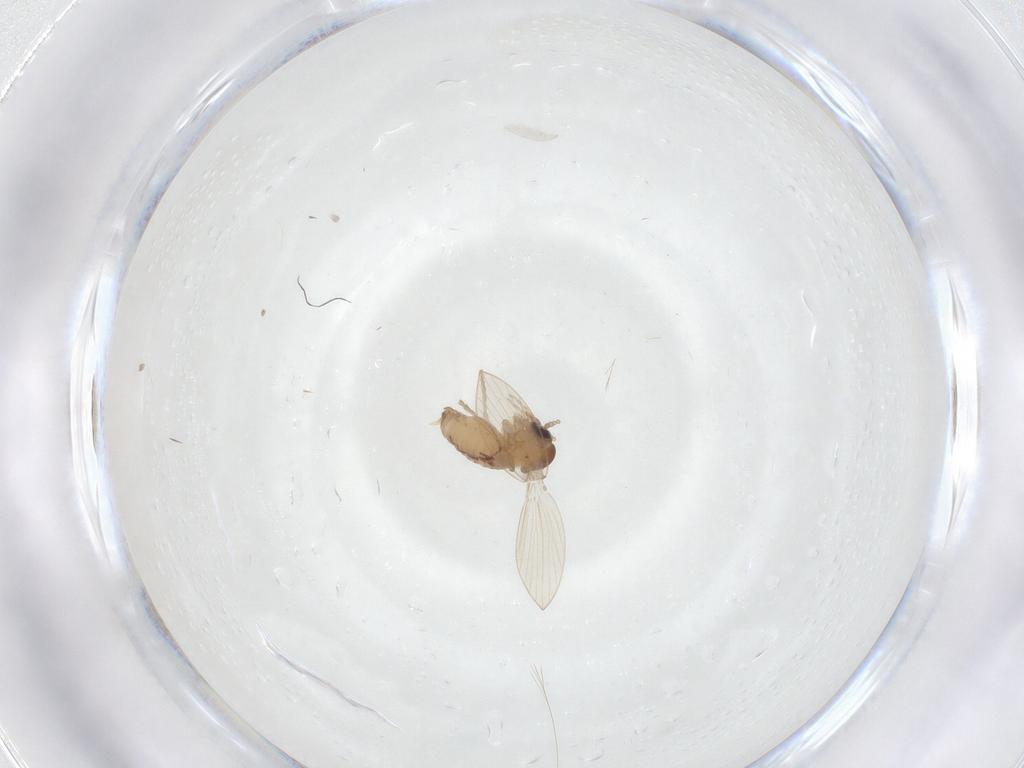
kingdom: Animalia
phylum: Arthropoda
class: Insecta
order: Diptera
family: Psychodidae
